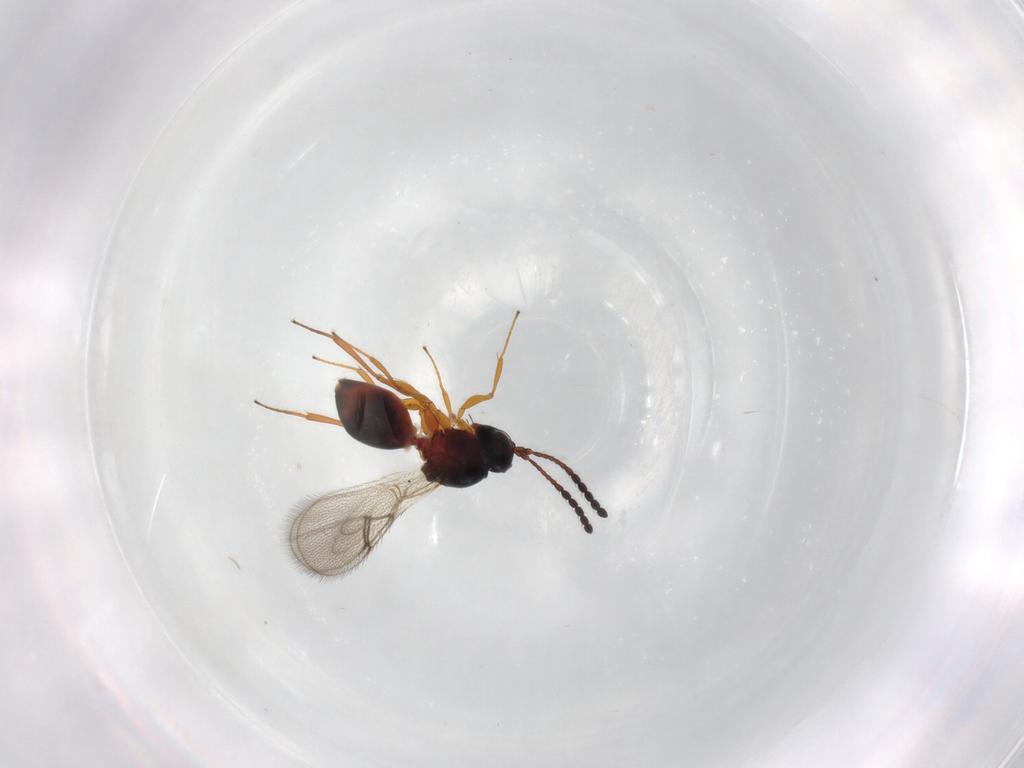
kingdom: Animalia
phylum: Arthropoda
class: Insecta
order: Hymenoptera
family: Figitidae
